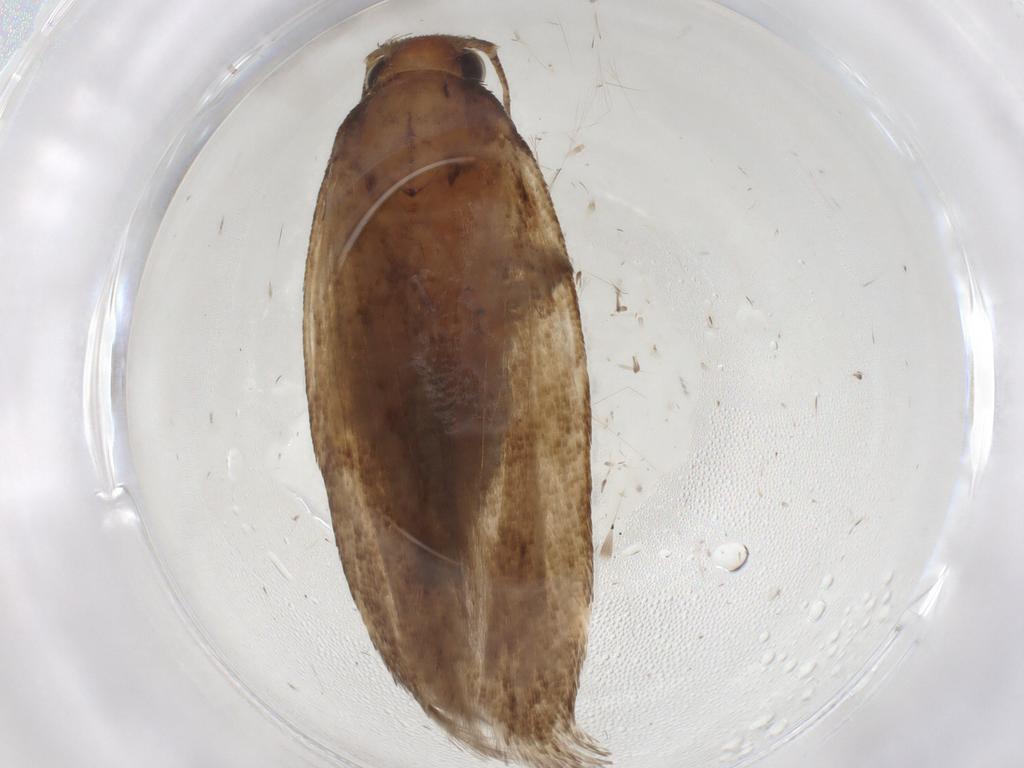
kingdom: Animalia
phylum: Arthropoda
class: Insecta
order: Lepidoptera
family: Gelechiidae
